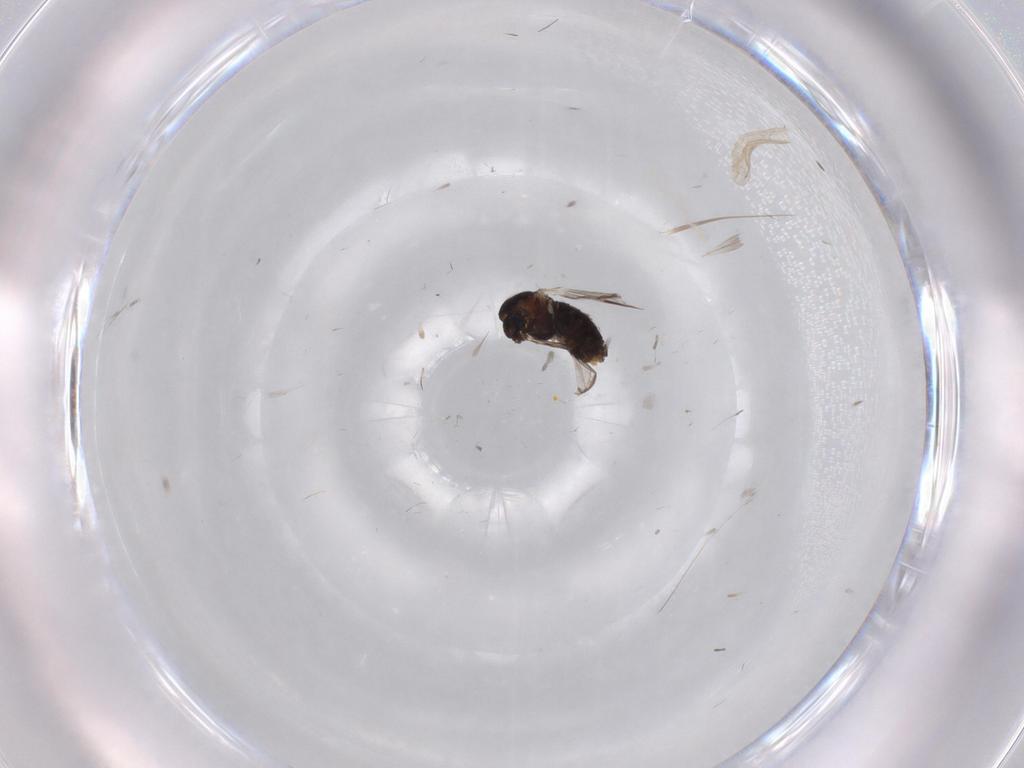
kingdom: Animalia
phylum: Arthropoda
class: Insecta
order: Diptera
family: Chironomidae
